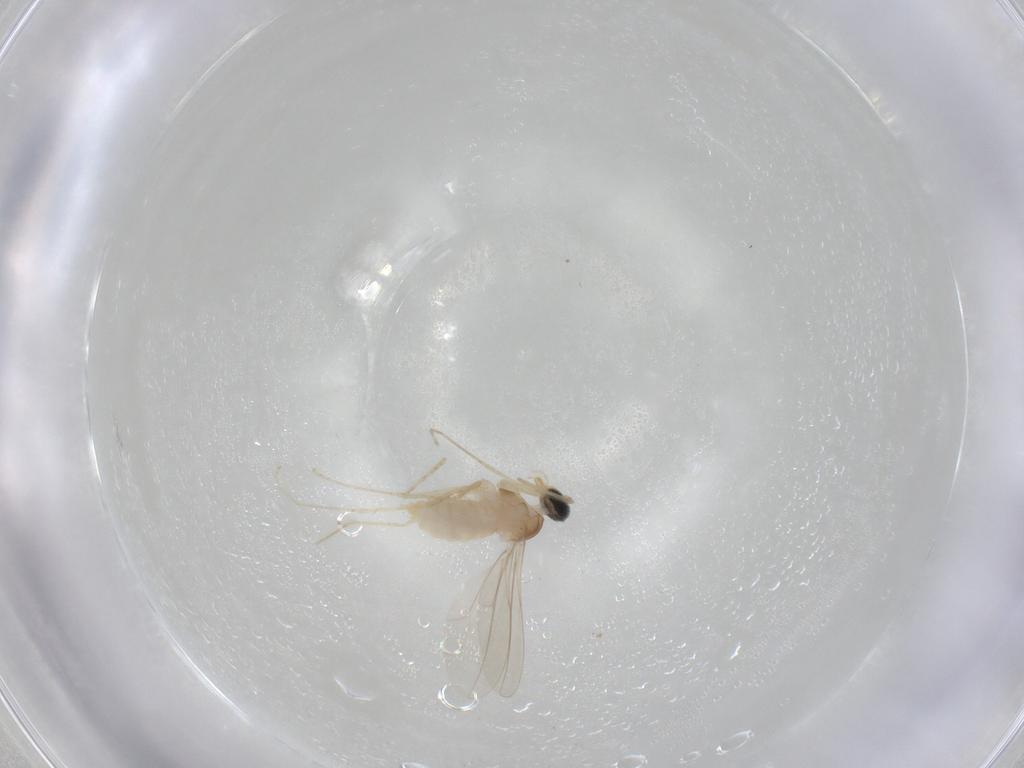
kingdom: Animalia
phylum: Arthropoda
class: Insecta
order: Diptera
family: Cecidomyiidae
